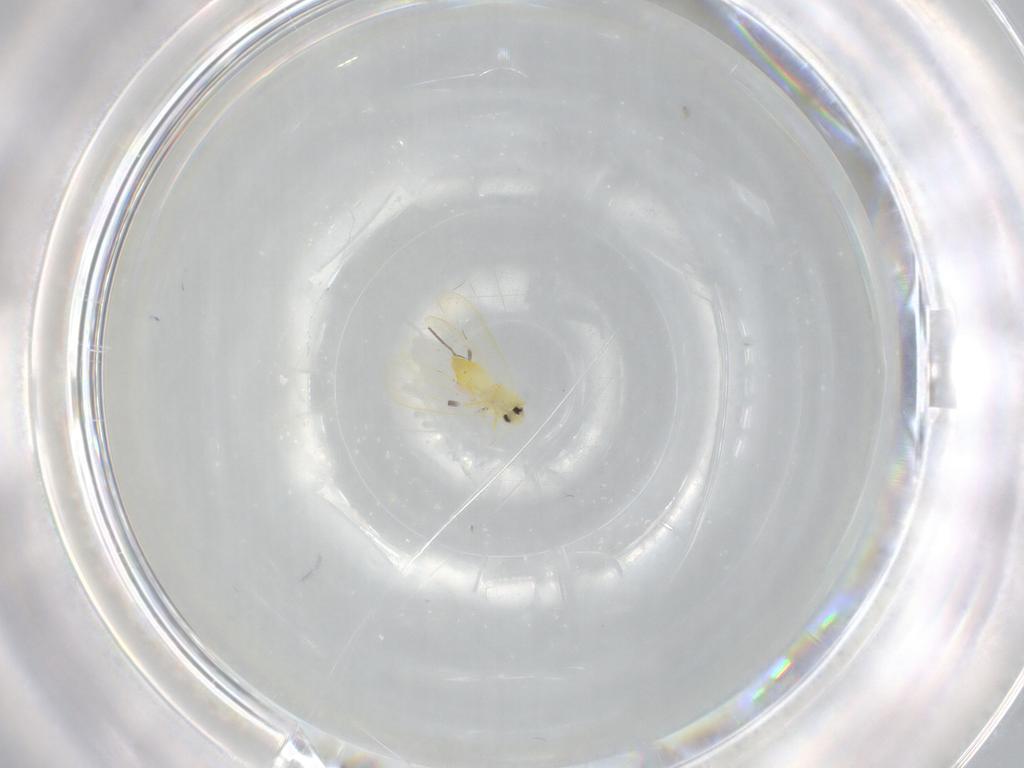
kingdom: Animalia
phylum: Arthropoda
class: Insecta
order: Hemiptera
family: Aleyrodidae
